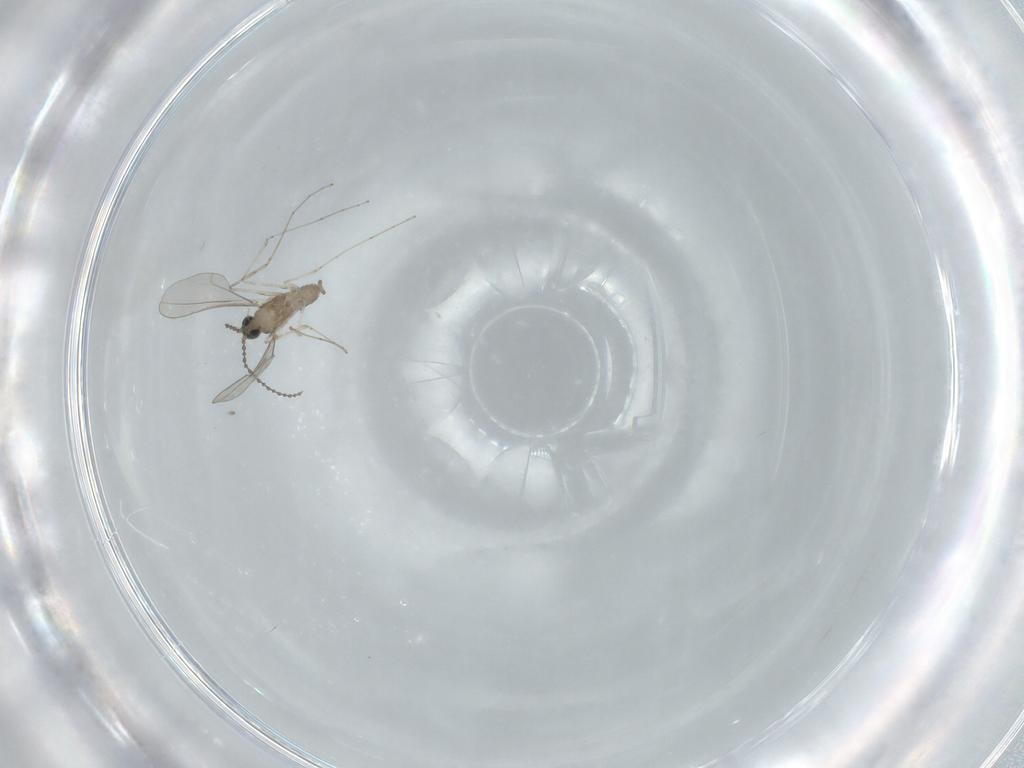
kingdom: Animalia
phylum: Arthropoda
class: Insecta
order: Diptera
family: Cecidomyiidae
